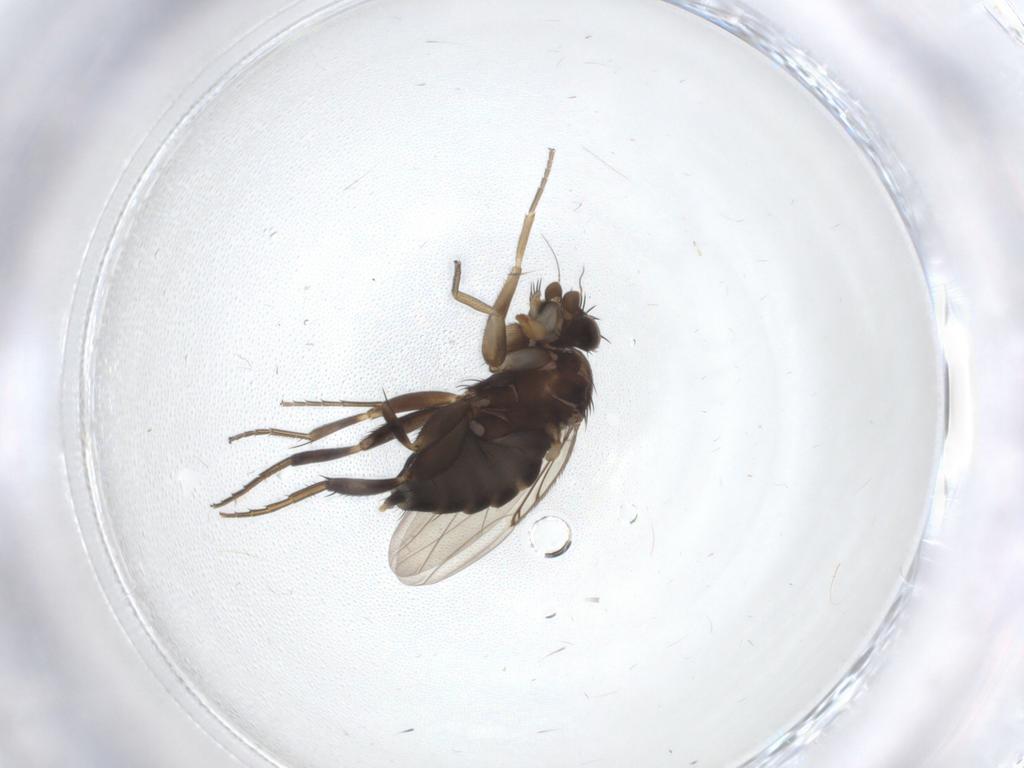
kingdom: Animalia
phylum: Arthropoda
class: Insecta
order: Diptera
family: Phoridae
